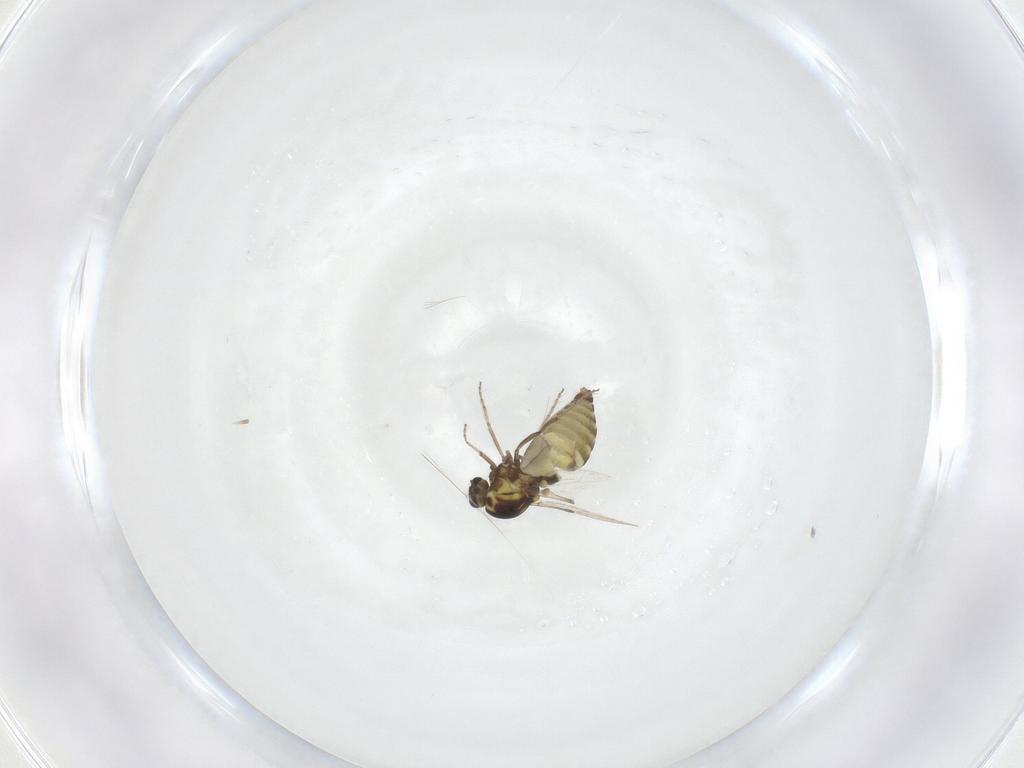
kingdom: Animalia
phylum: Arthropoda
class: Insecta
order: Diptera
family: Ceratopogonidae
